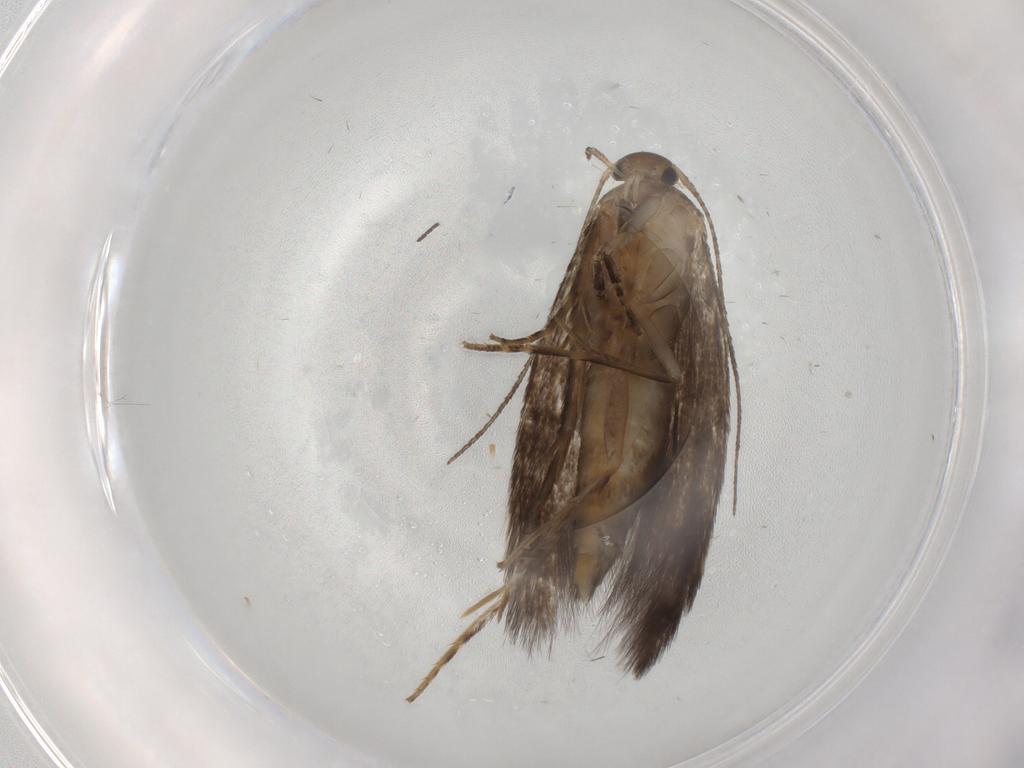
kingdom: Animalia
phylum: Arthropoda
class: Insecta
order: Lepidoptera
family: Elachistidae
